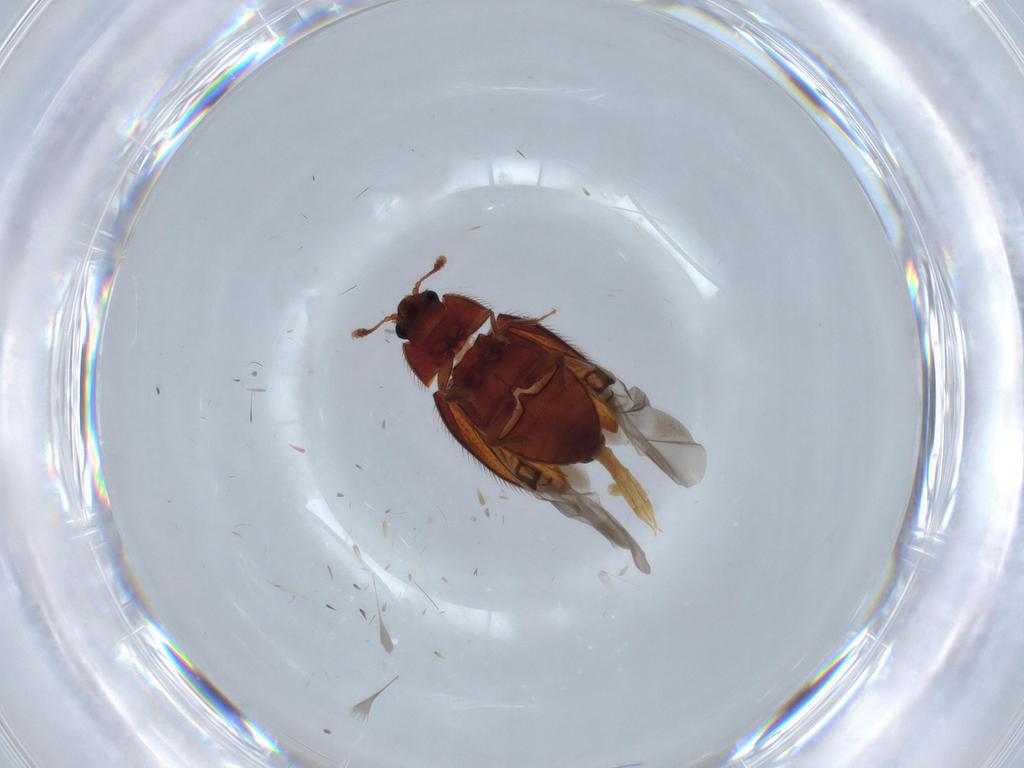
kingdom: Animalia
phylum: Arthropoda
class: Insecta
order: Coleoptera
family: Biphyllidae
